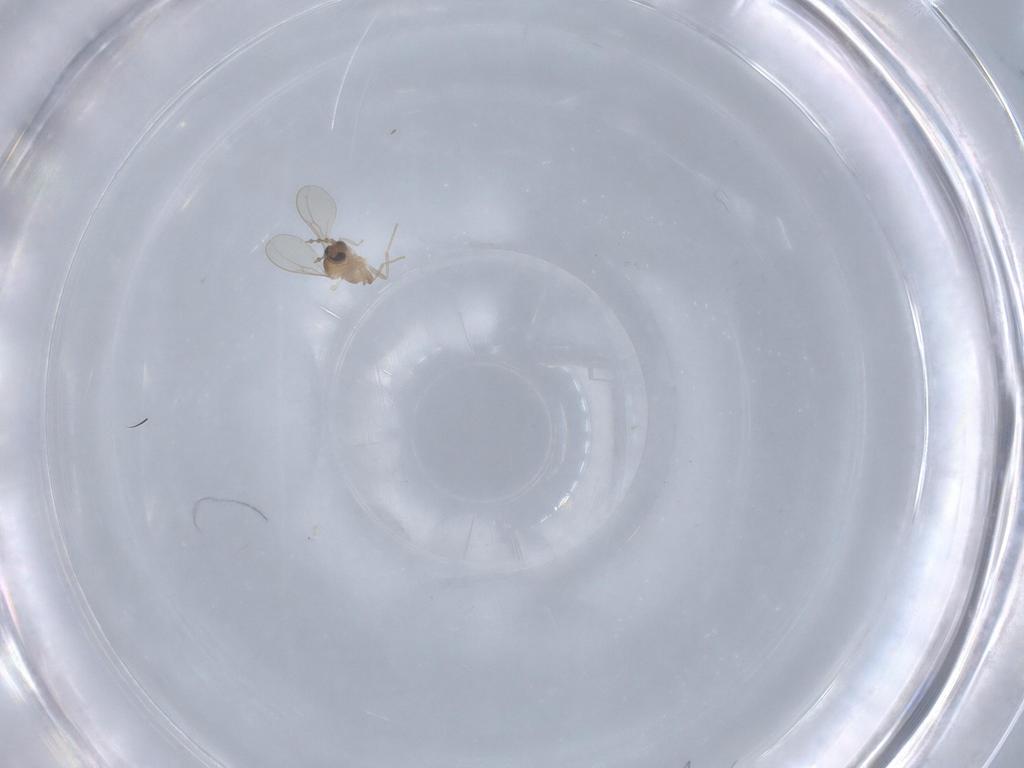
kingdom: Animalia
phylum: Arthropoda
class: Insecta
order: Diptera
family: Cecidomyiidae
